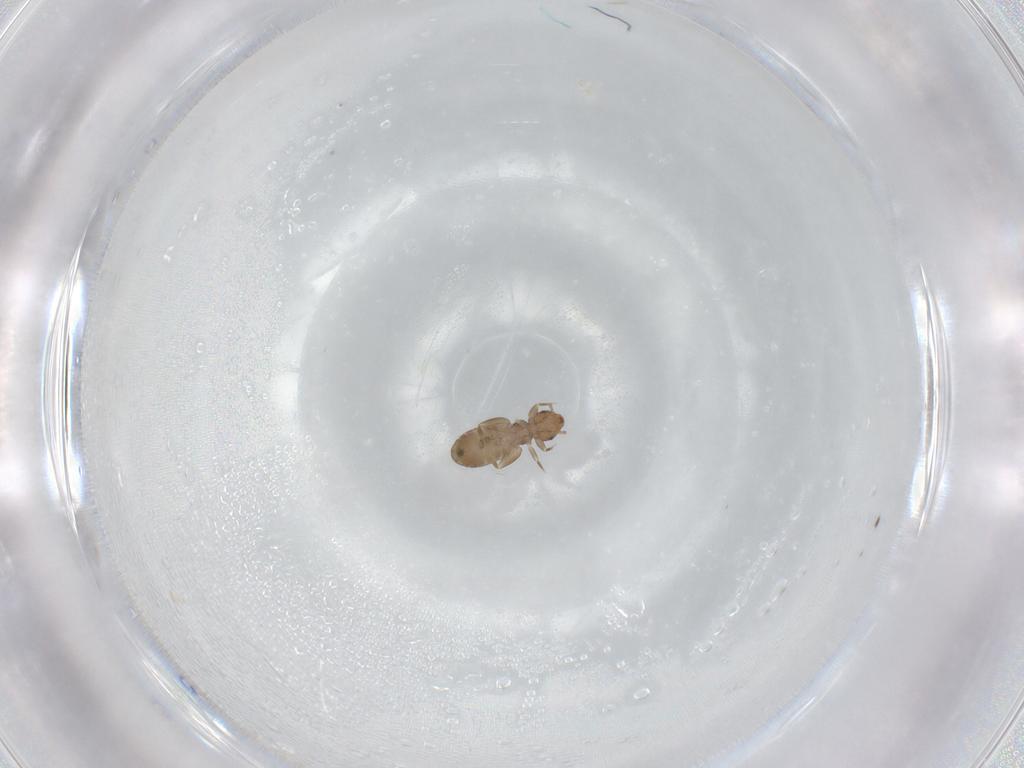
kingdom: Animalia
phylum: Arthropoda
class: Insecta
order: Psocodea
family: Liposcelididae
